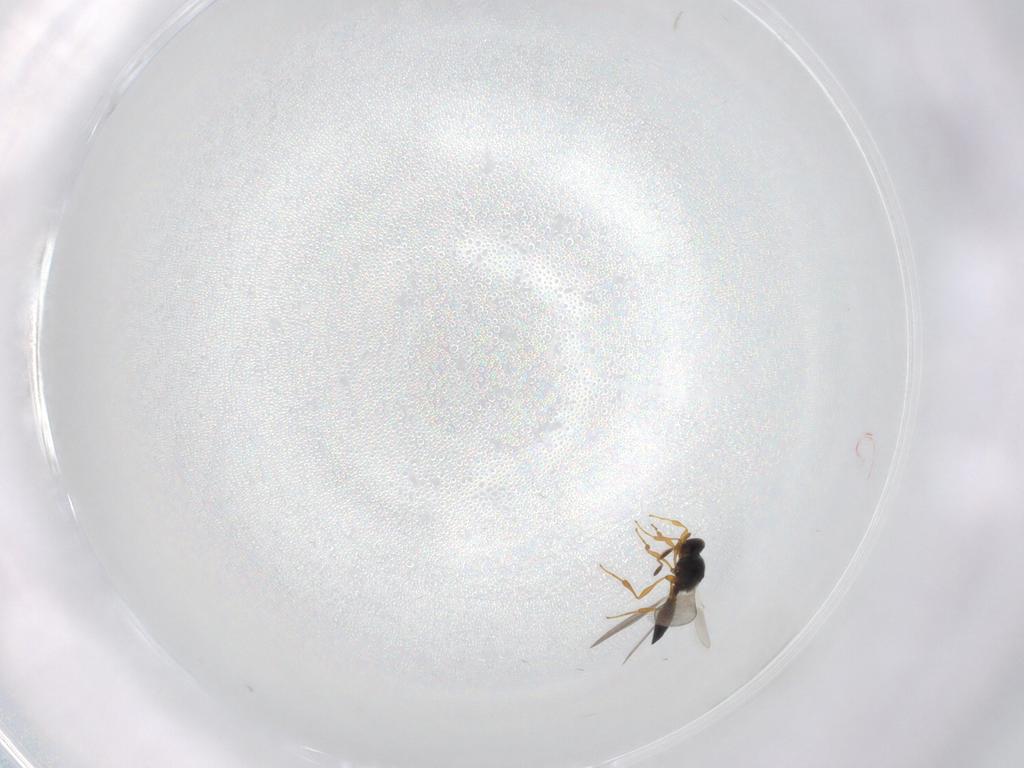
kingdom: Animalia
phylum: Arthropoda
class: Insecta
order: Hymenoptera
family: Platygastridae
